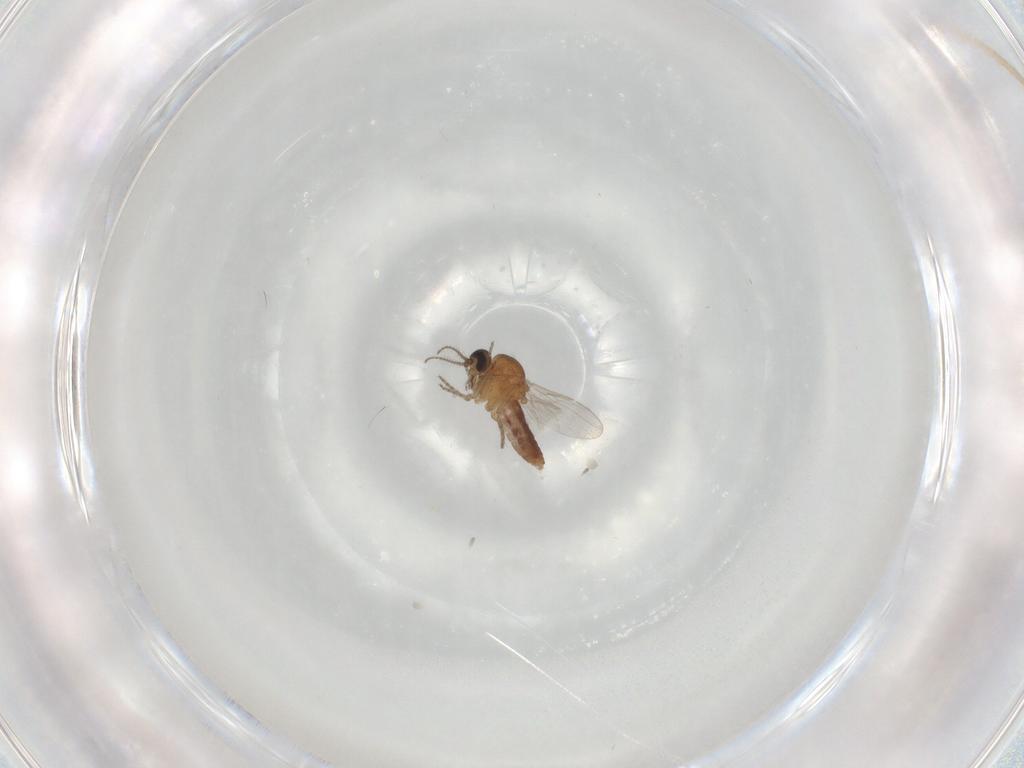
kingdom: Animalia
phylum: Arthropoda
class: Insecta
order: Diptera
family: Ceratopogonidae
